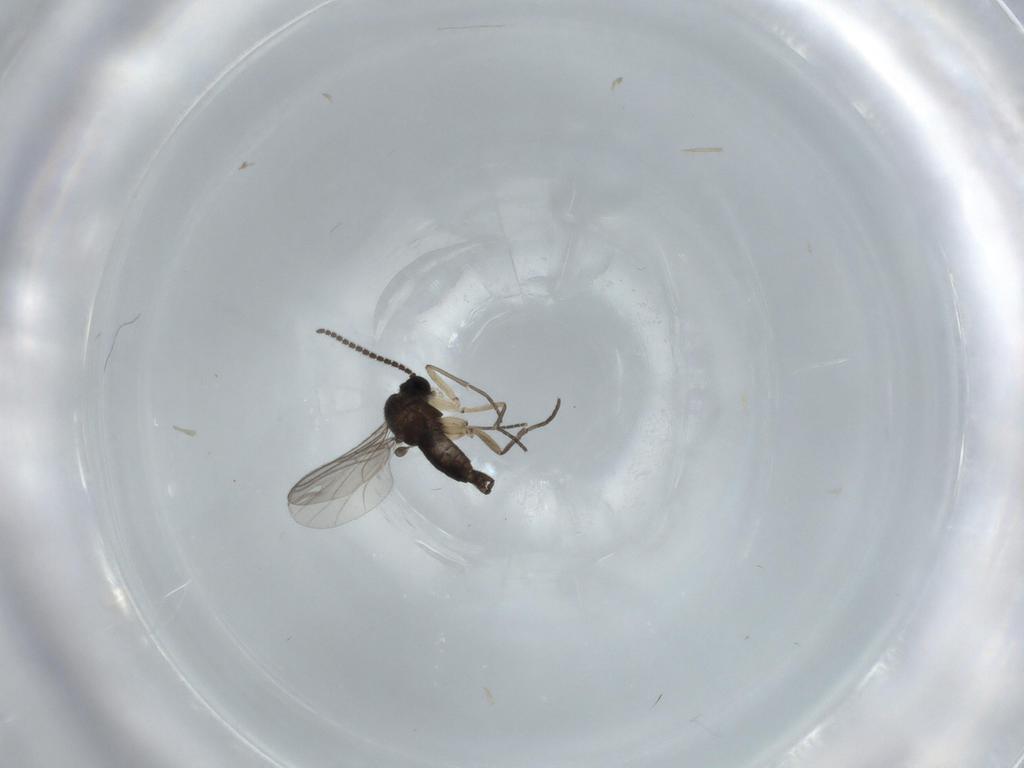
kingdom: Animalia
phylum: Arthropoda
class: Insecta
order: Diptera
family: Sciaridae
